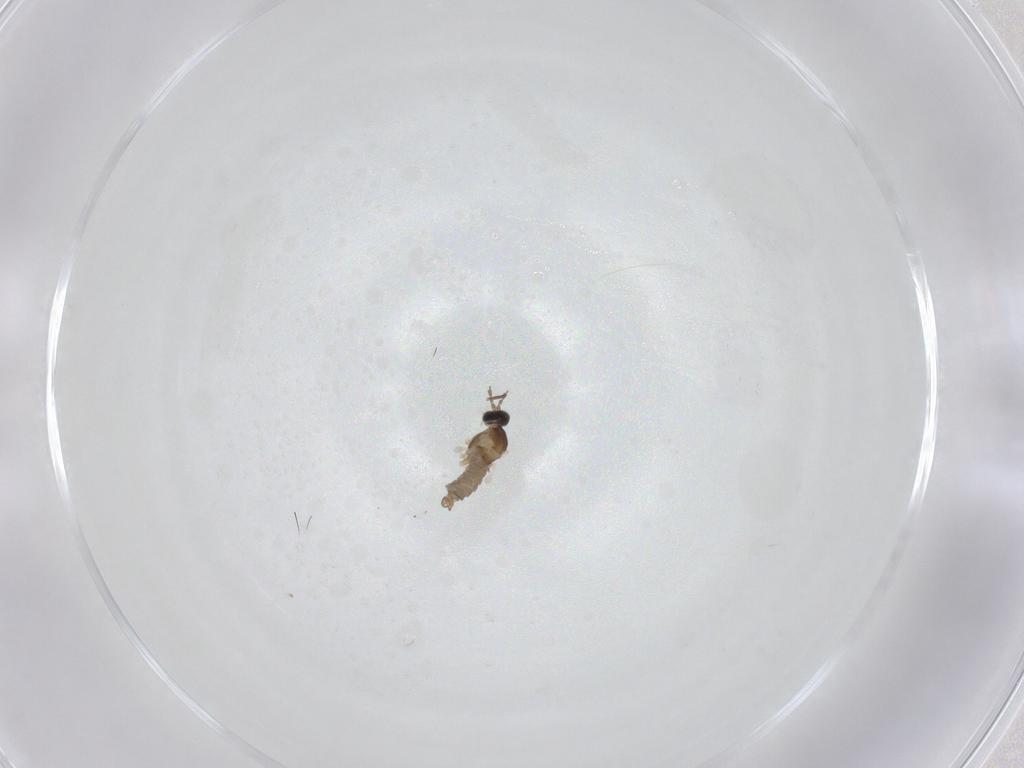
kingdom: Animalia
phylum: Arthropoda
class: Insecta
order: Diptera
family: Cecidomyiidae
